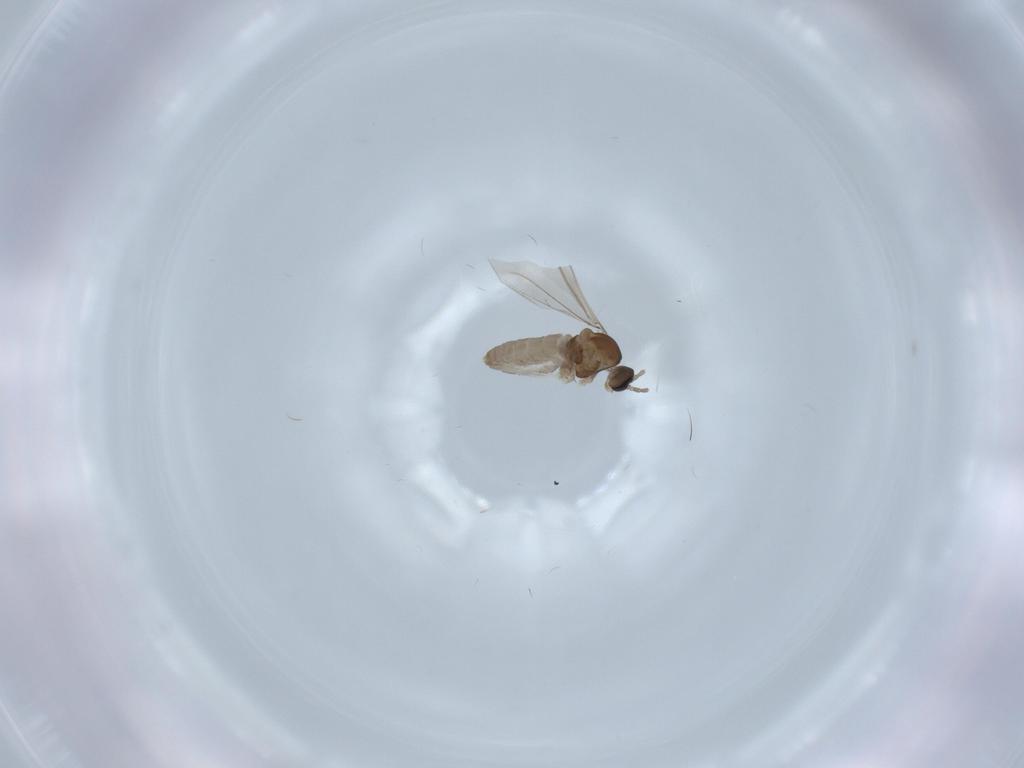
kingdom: Animalia
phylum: Arthropoda
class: Insecta
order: Diptera
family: Cecidomyiidae
